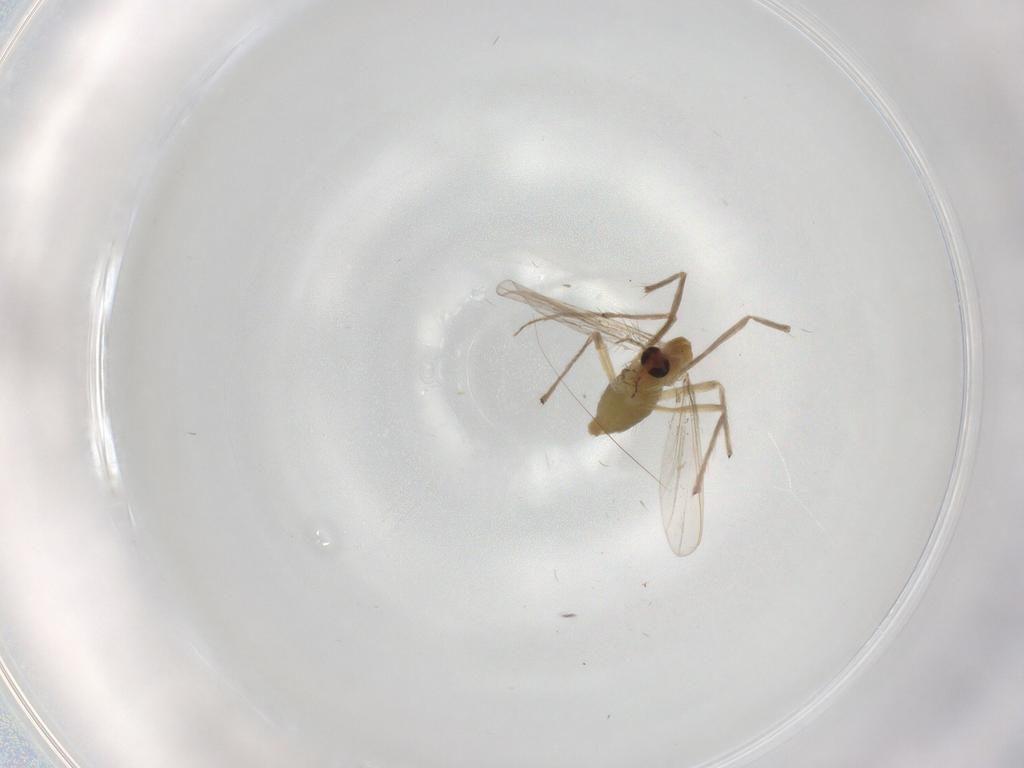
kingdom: Animalia
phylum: Arthropoda
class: Insecta
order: Diptera
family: Chironomidae
